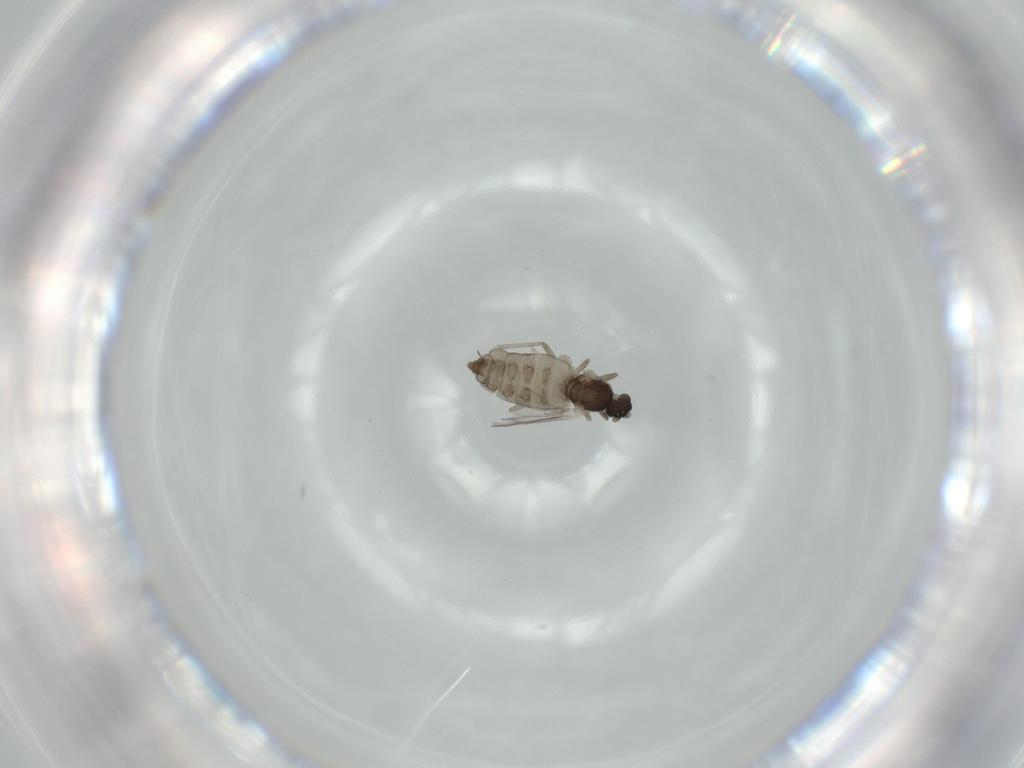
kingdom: Animalia
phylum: Arthropoda
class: Insecta
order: Diptera
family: Cecidomyiidae
